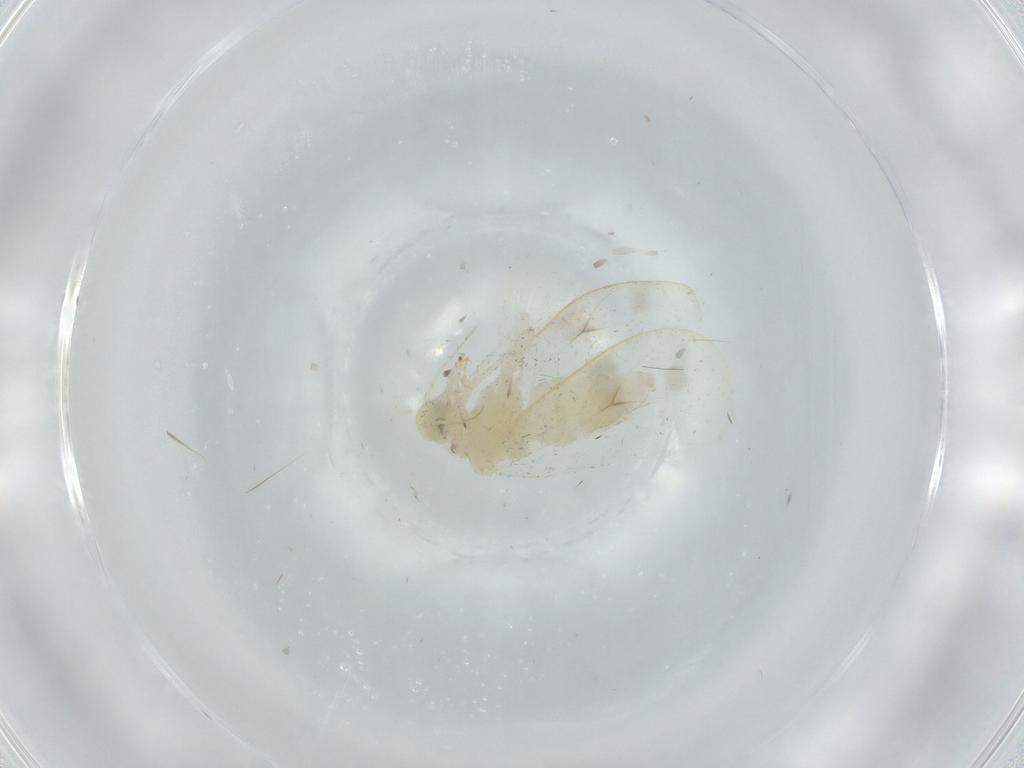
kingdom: Animalia
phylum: Arthropoda
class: Insecta
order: Hemiptera
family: Aleyrodidae
